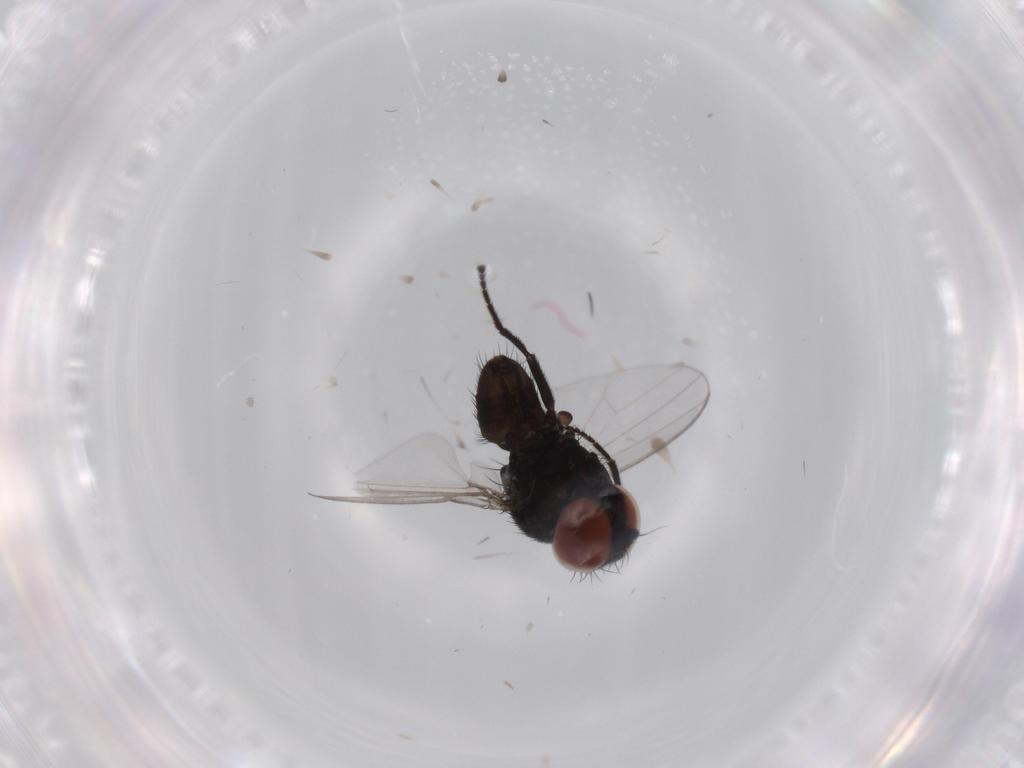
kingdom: Animalia
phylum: Arthropoda
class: Insecta
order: Diptera
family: Milichiidae
